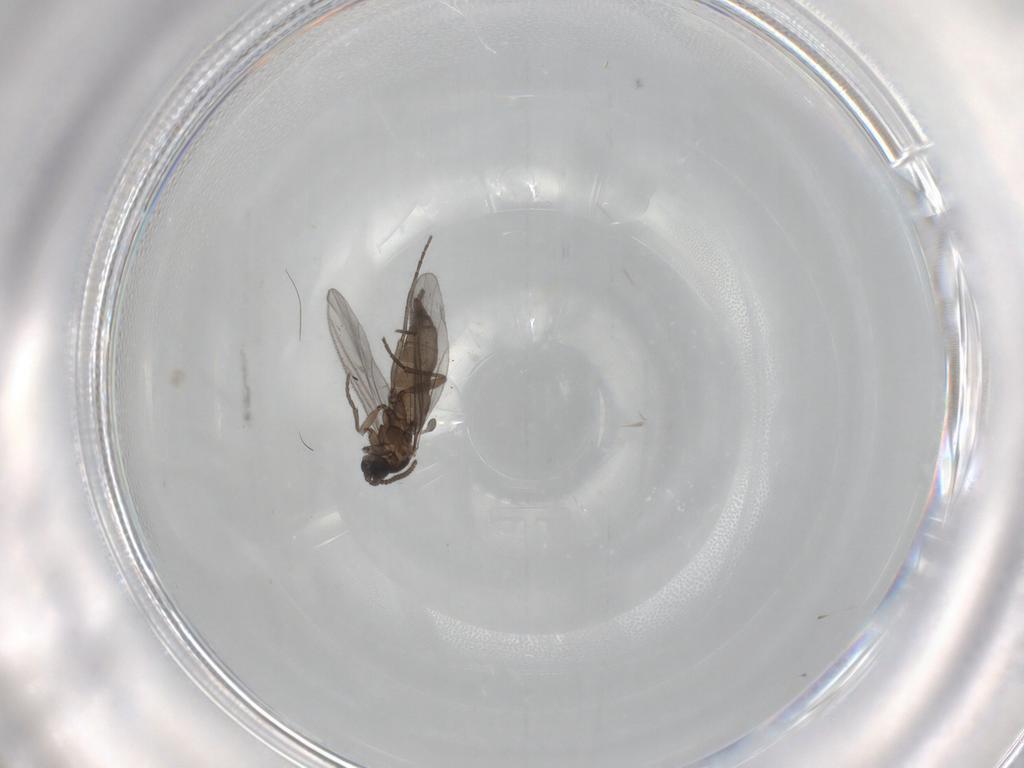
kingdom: Animalia
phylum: Arthropoda
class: Insecta
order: Diptera
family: Sciaridae
